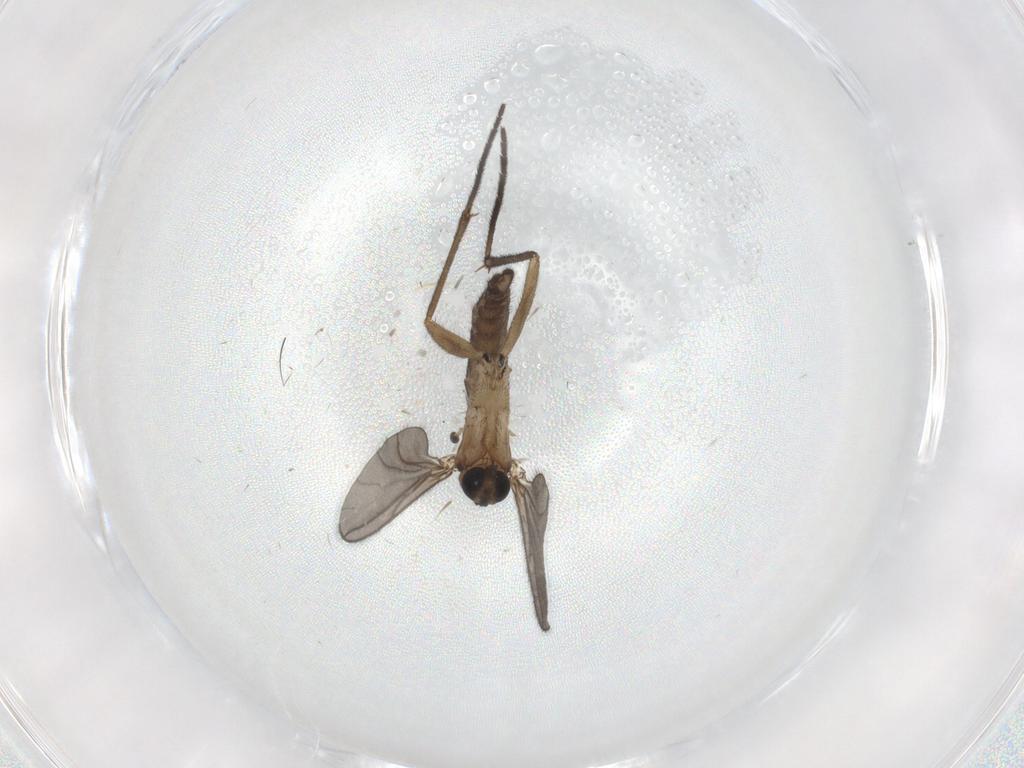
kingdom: Animalia
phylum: Arthropoda
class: Insecta
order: Diptera
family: Sciaridae
